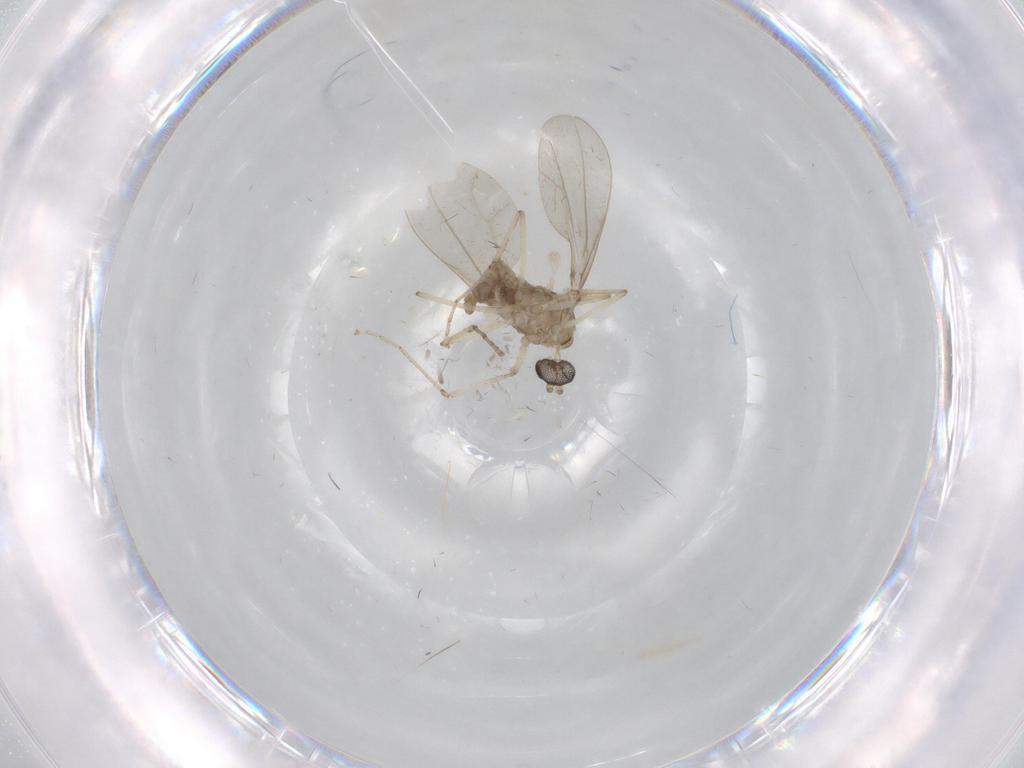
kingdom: Animalia
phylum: Arthropoda
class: Insecta
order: Diptera
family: Cecidomyiidae
